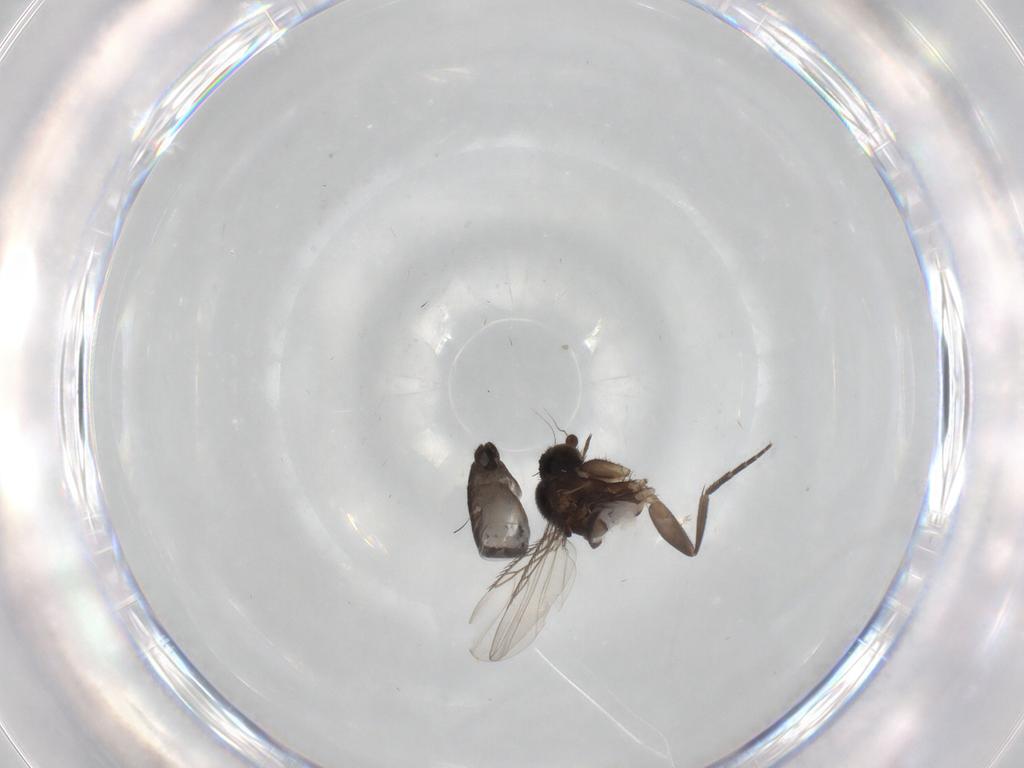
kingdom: Animalia
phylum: Arthropoda
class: Insecta
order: Diptera
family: Phoridae
